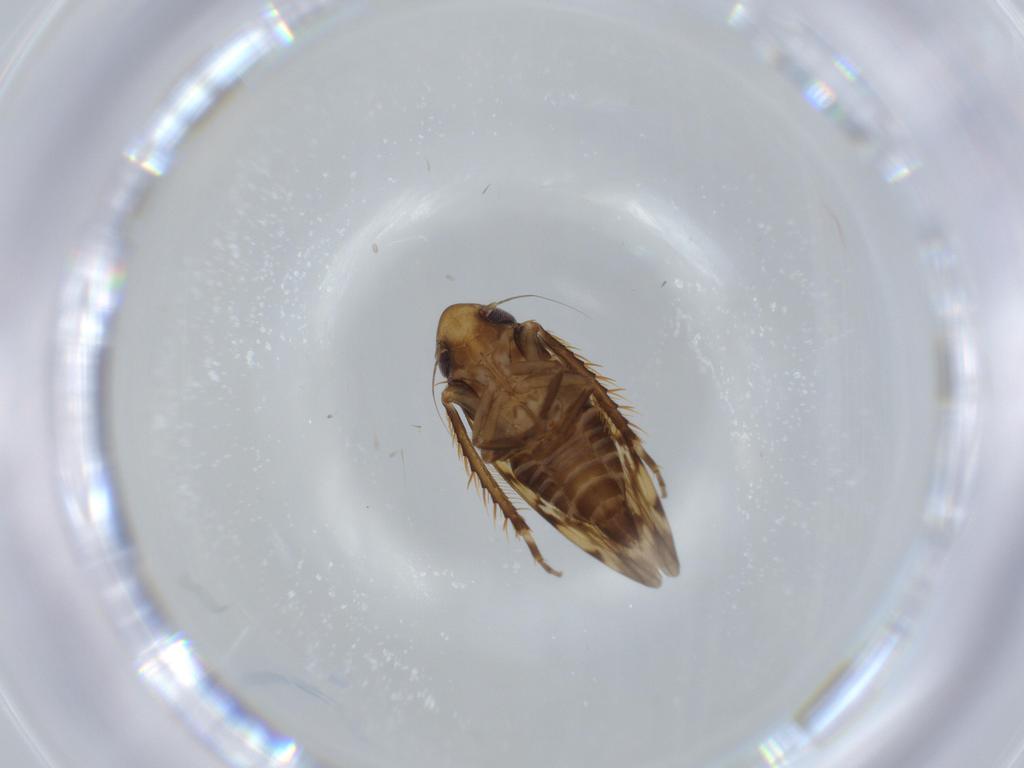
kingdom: Animalia
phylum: Arthropoda
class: Insecta
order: Hemiptera
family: Cicadellidae
